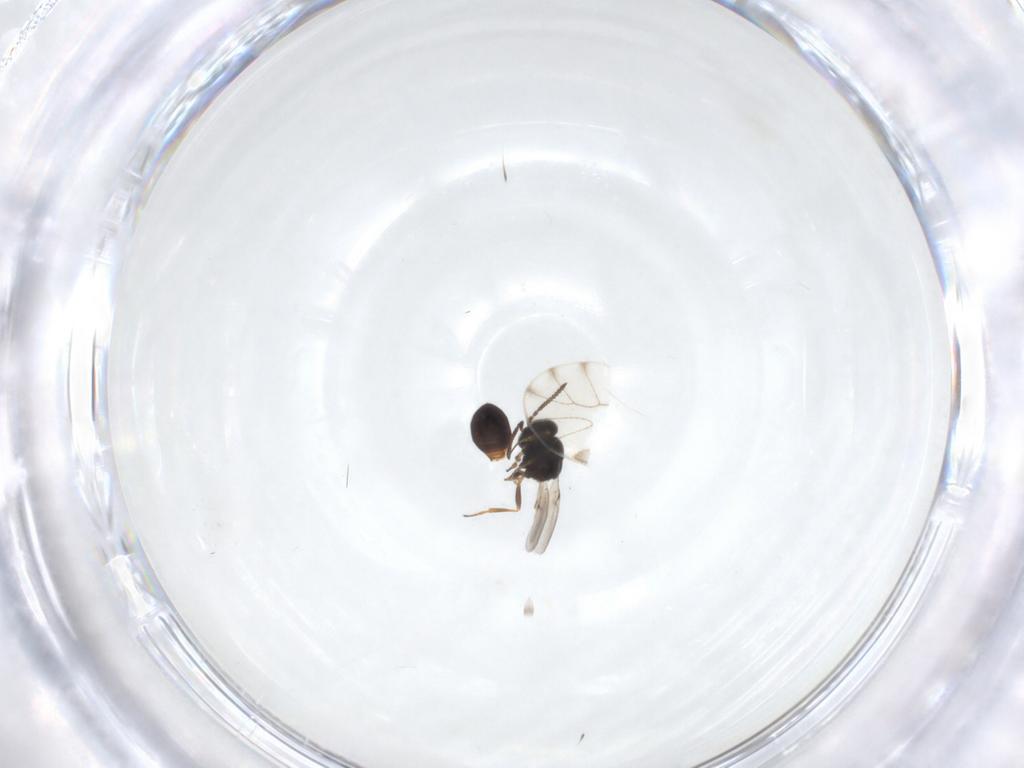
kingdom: Animalia
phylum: Arthropoda
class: Arachnida
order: Araneae
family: Pholcidae
